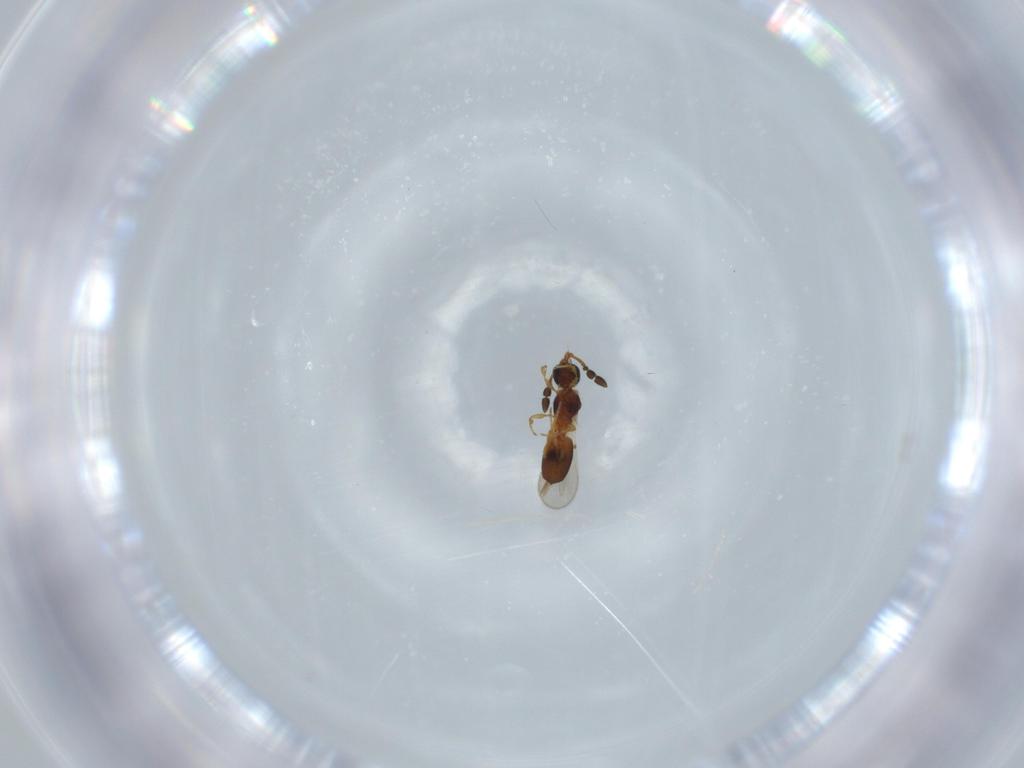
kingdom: Animalia
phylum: Arthropoda
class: Insecta
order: Hymenoptera
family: Diapriidae
